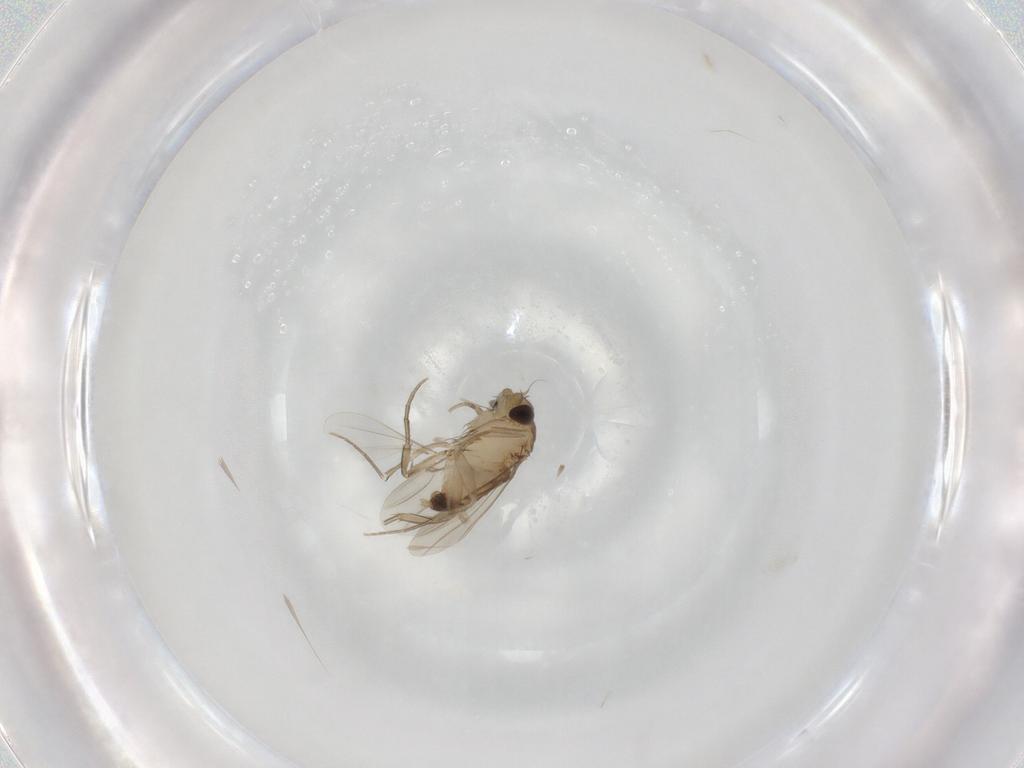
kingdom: Animalia
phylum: Arthropoda
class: Insecta
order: Diptera
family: Phoridae
